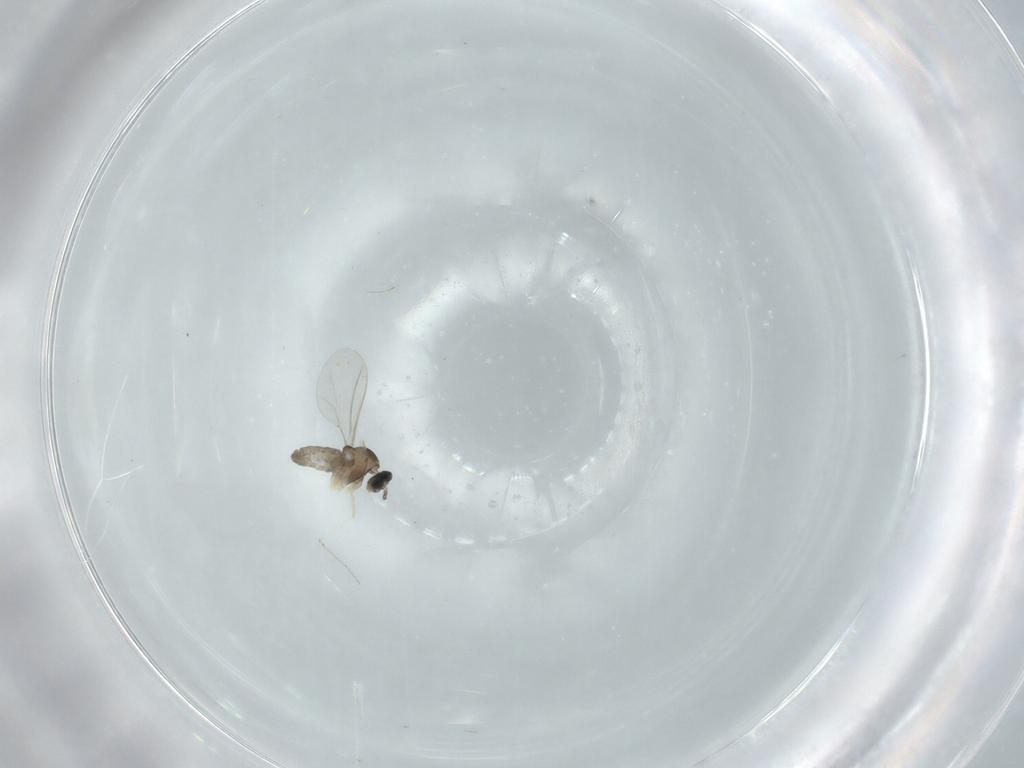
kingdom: Animalia
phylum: Arthropoda
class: Insecta
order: Diptera
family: Cecidomyiidae
